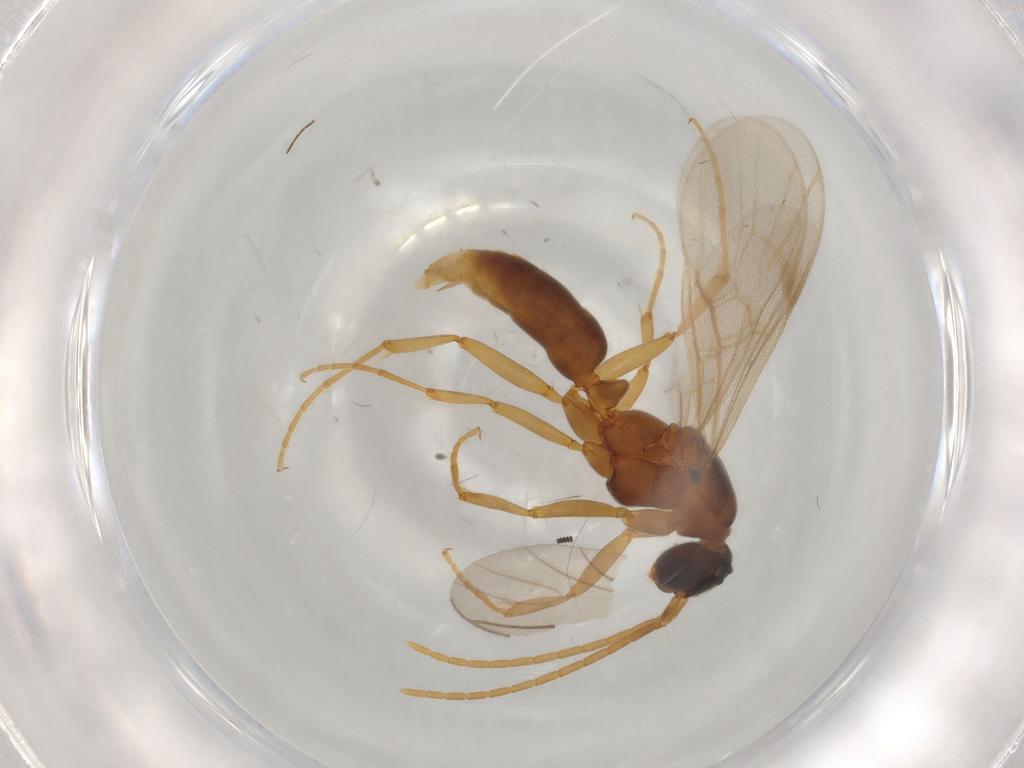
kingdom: Animalia
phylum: Arthropoda
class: Insecta
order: Hymenoptera
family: Formicidae
